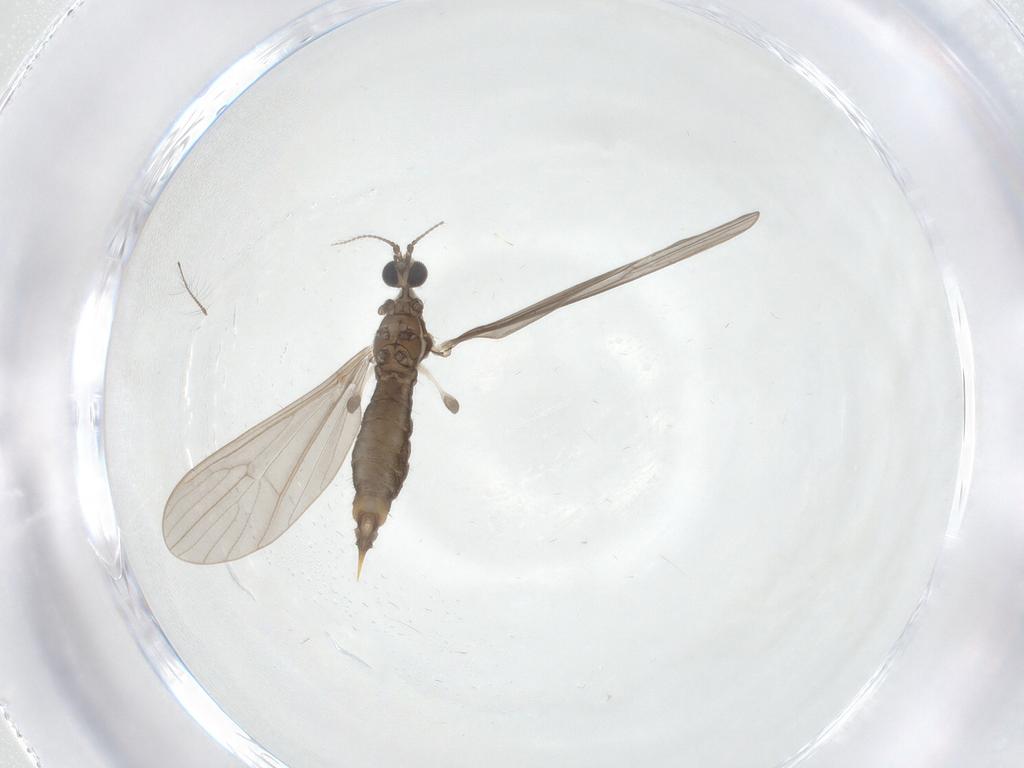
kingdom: Animalia
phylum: Arthropoda
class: Insecta
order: Diptera
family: Limoniidae
